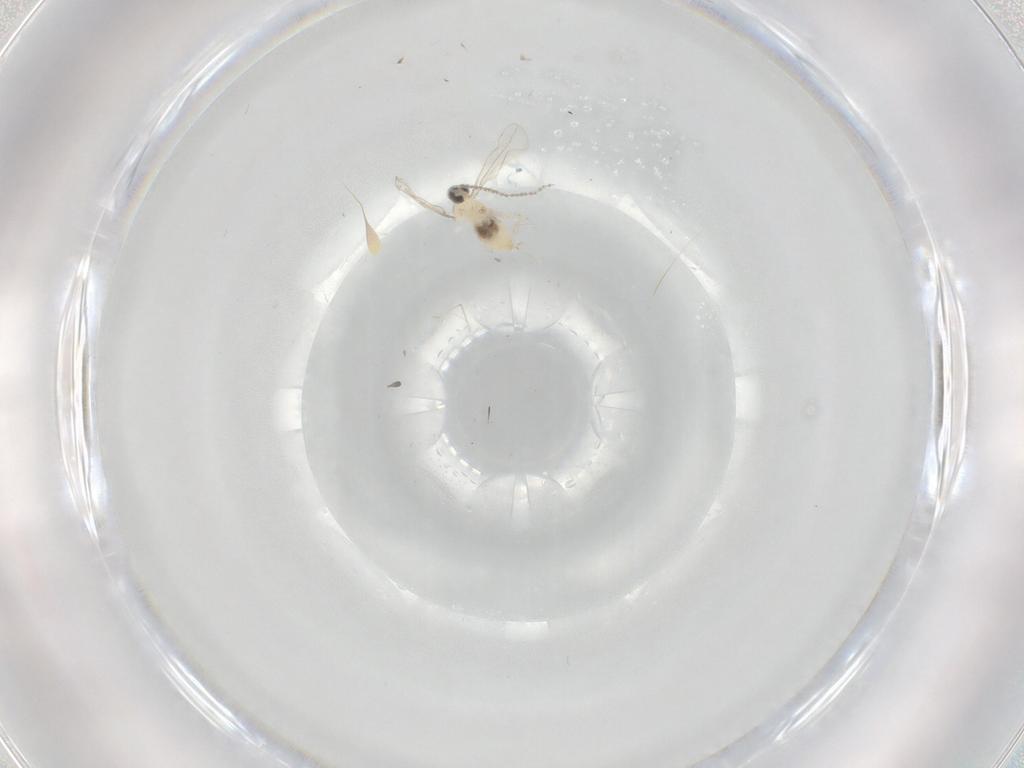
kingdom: Animalia
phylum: Arthropoda
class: Insecta
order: Diptera
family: Cecidomyiidae
